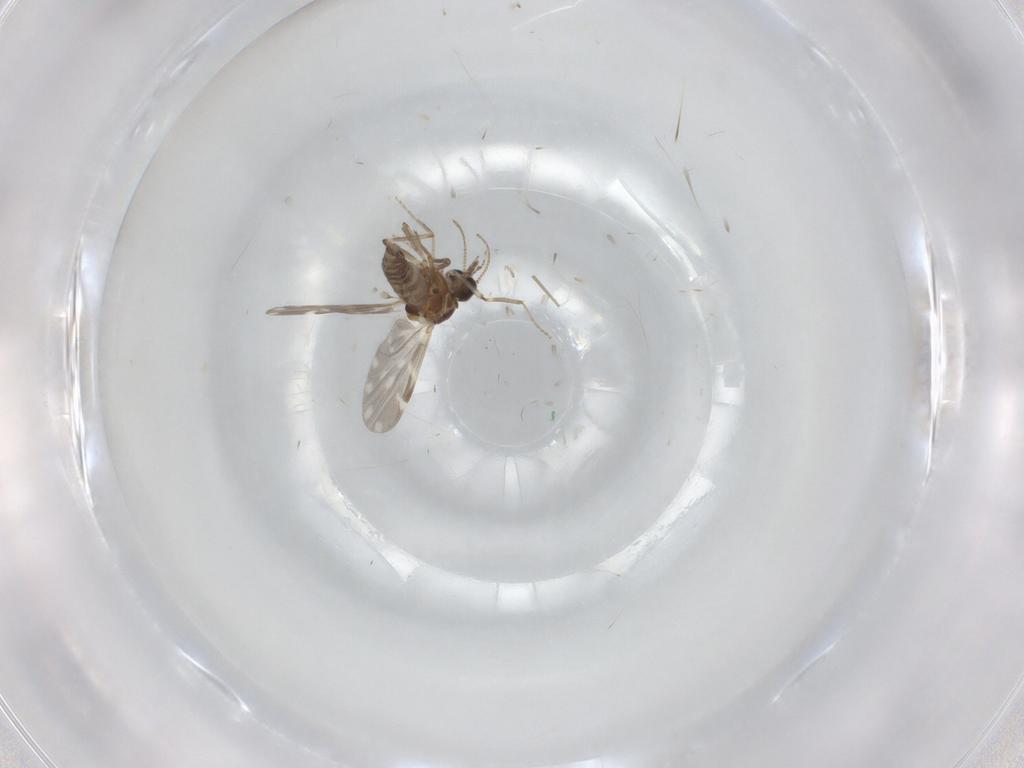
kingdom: Animalia
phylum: Arthropoda
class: Insecta
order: Diptera
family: Ceratopogonidae
